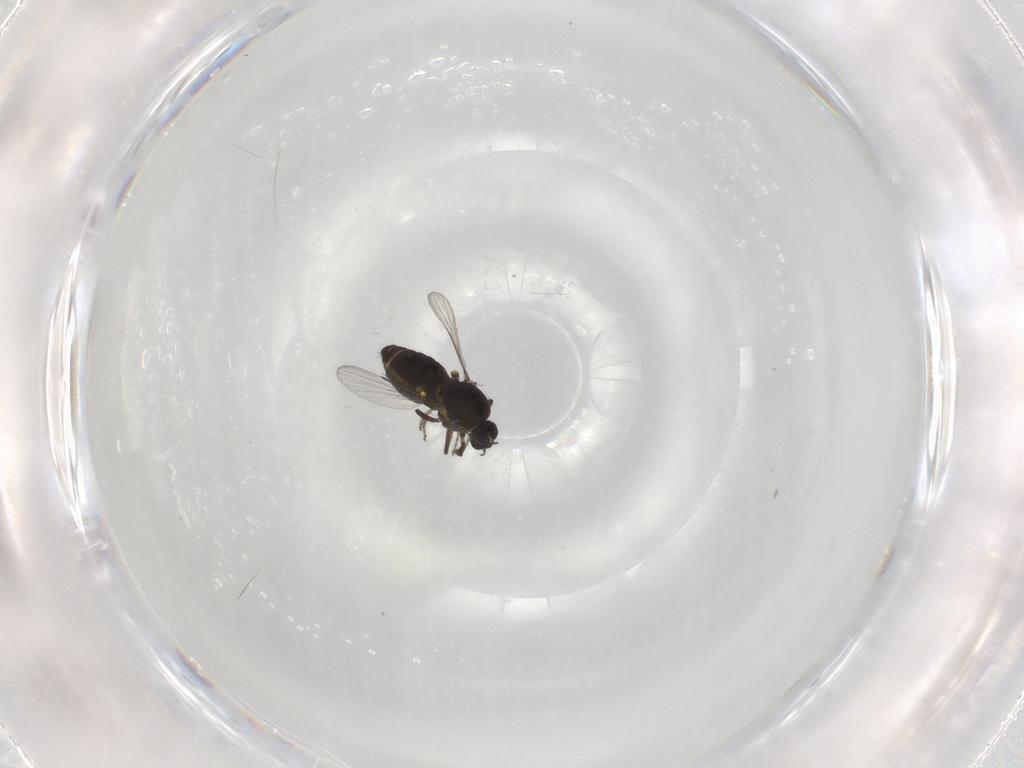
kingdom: Animalia
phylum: Arthropoda
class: Insecta
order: Diptera
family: Ceratopogonidae
